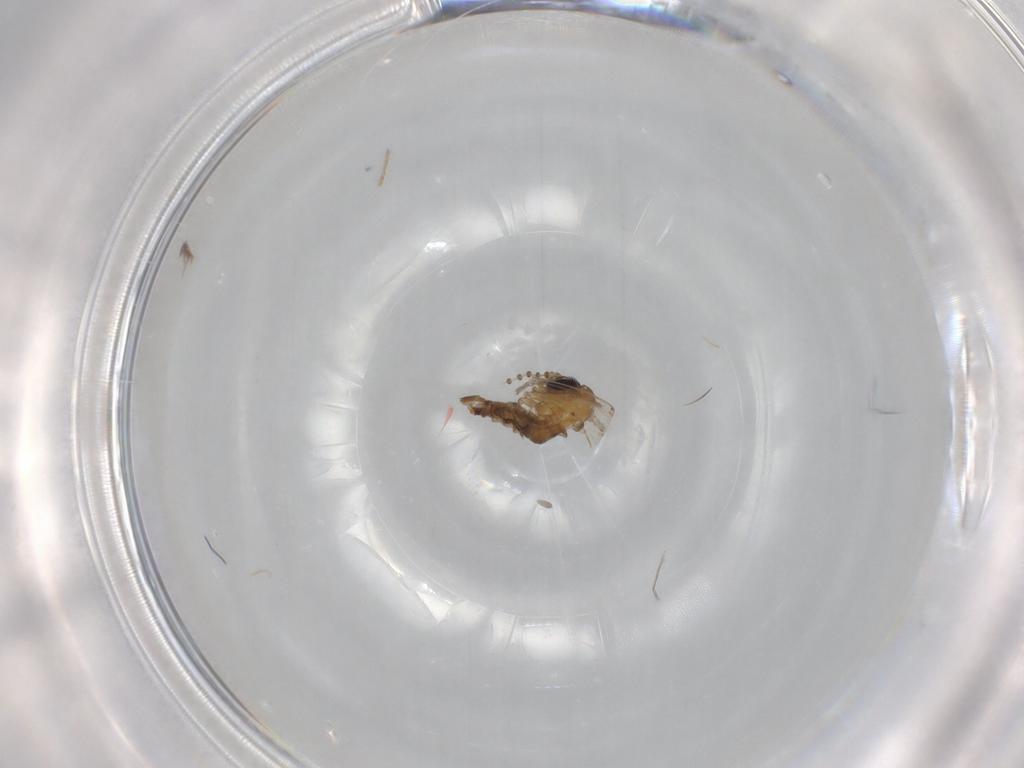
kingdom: Animalia
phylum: Arthropoda
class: Insecta
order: Diptera
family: Psychodidae
